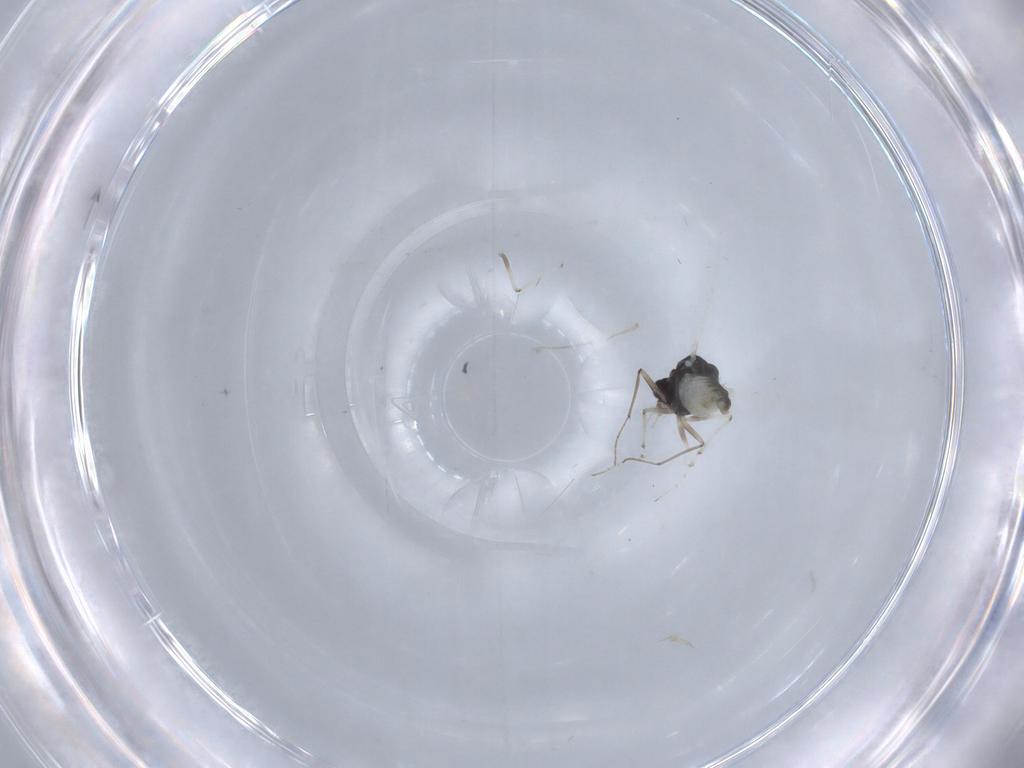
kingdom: Animalia
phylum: Arthropoda
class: Insecta
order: Diptera
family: Chironomidae
